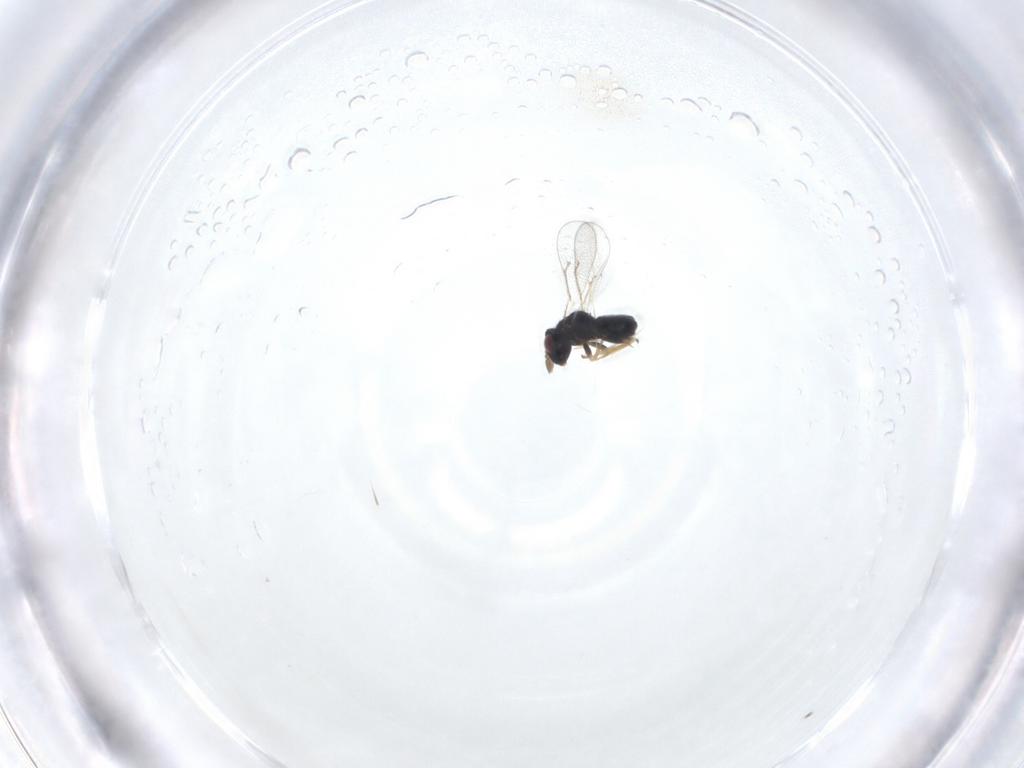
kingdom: Animalia
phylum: Arthropoda
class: Insecta
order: Hymenoptera
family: Eulophidae
